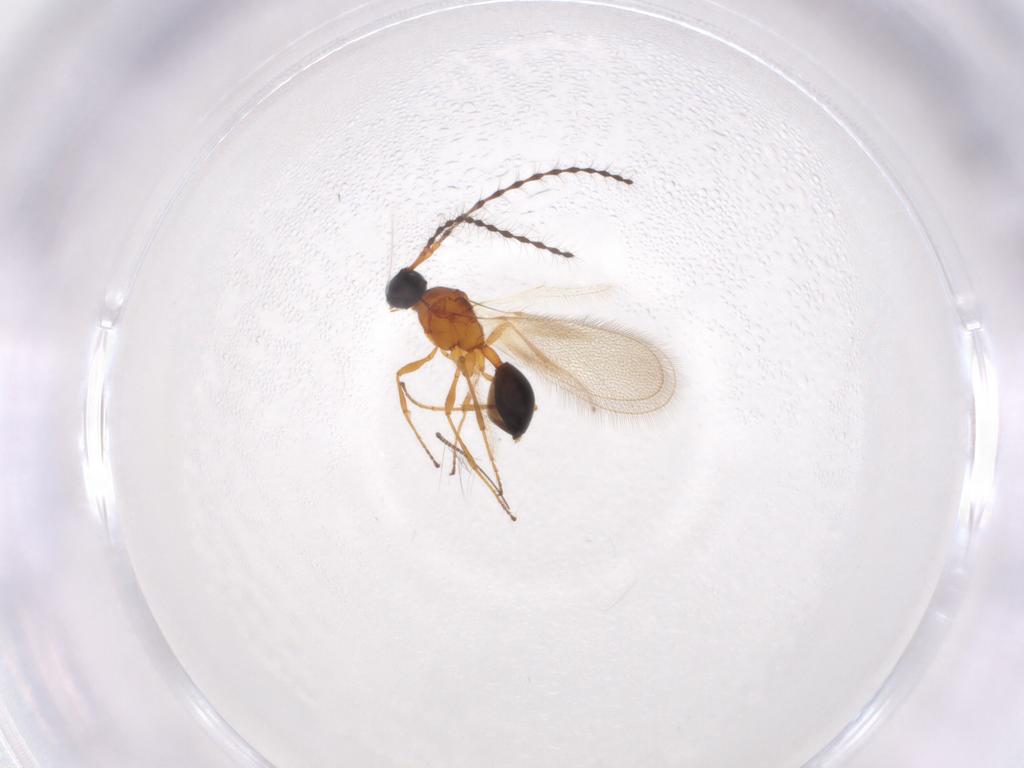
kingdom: Animalia
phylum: Arthropoda
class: Insecta
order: Hymenoptera
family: Diapriidae
